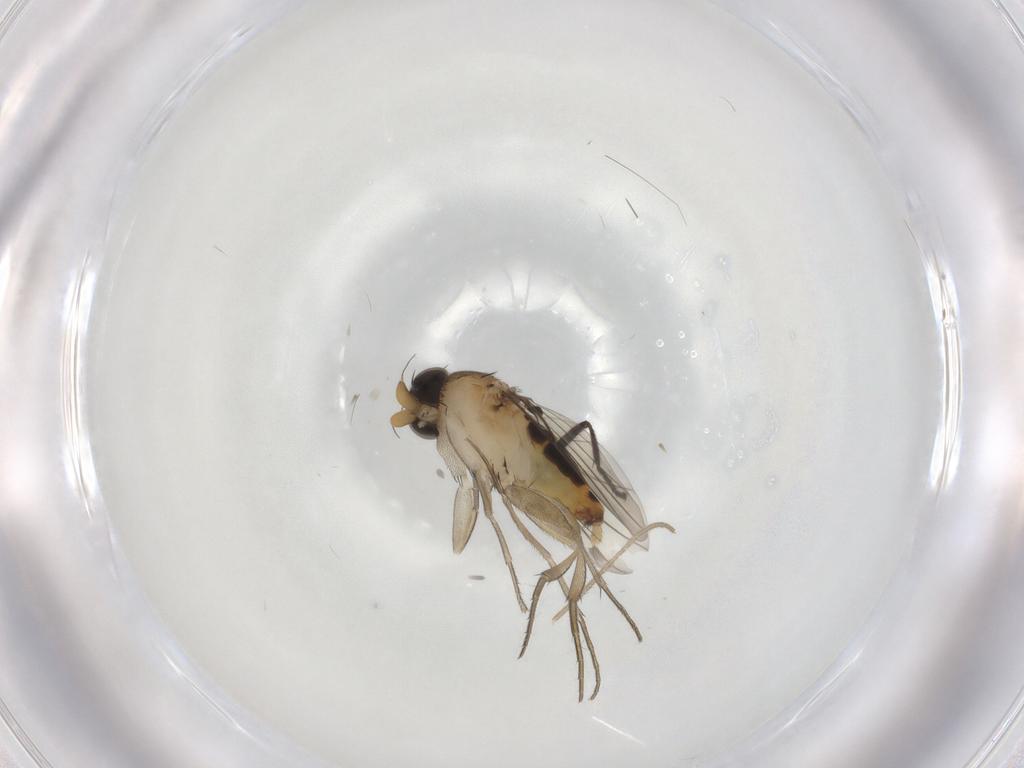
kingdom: Animalia
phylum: Arthropoda
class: Insecta
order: Diptera
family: Phoridae
